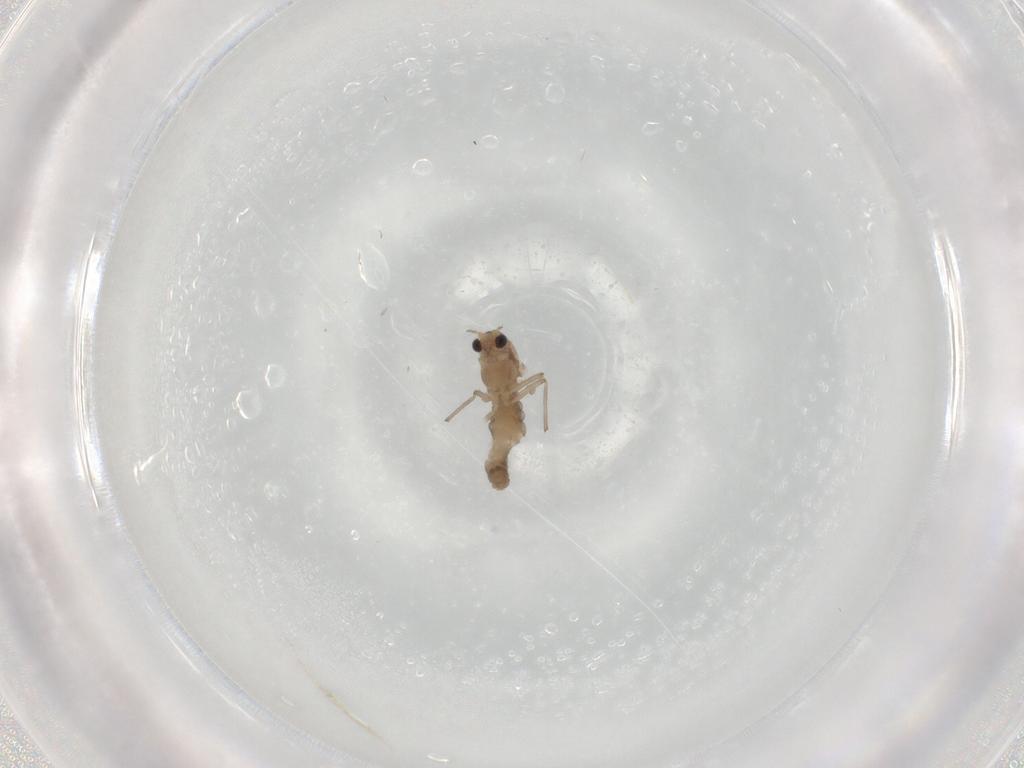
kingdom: Animalia
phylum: Arthropoda
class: Insecta
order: Diptera
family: Chironomidae
